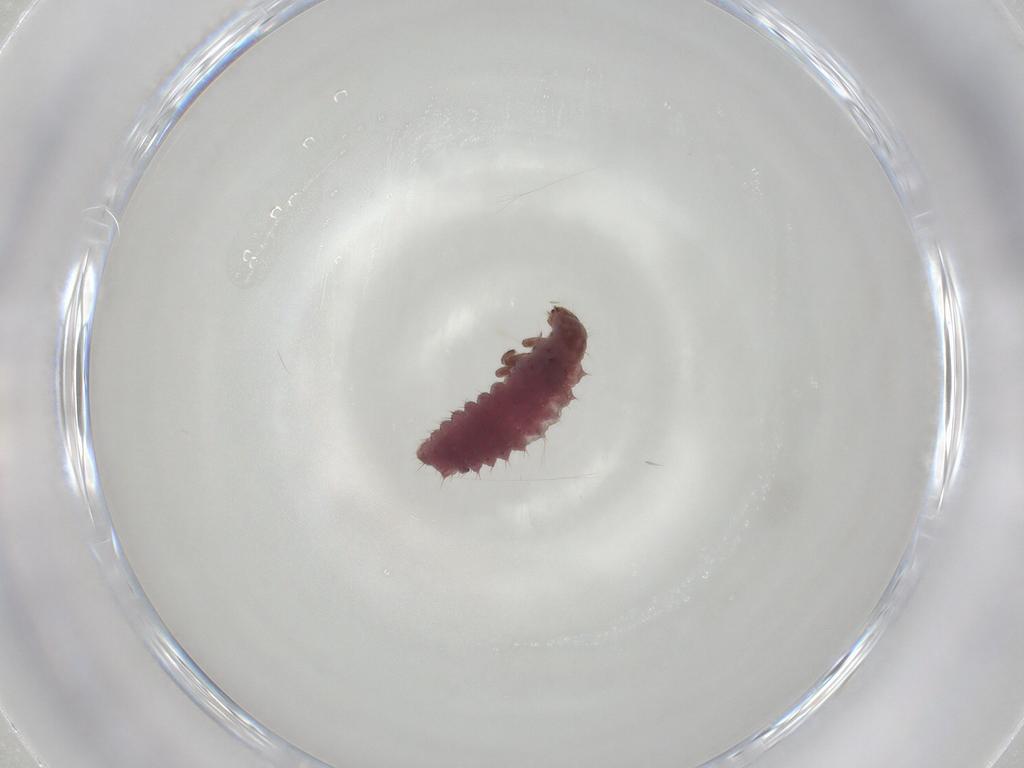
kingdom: Animalia
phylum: Arthropoda
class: Insecta
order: Coleoptera
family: Coccinellidae
